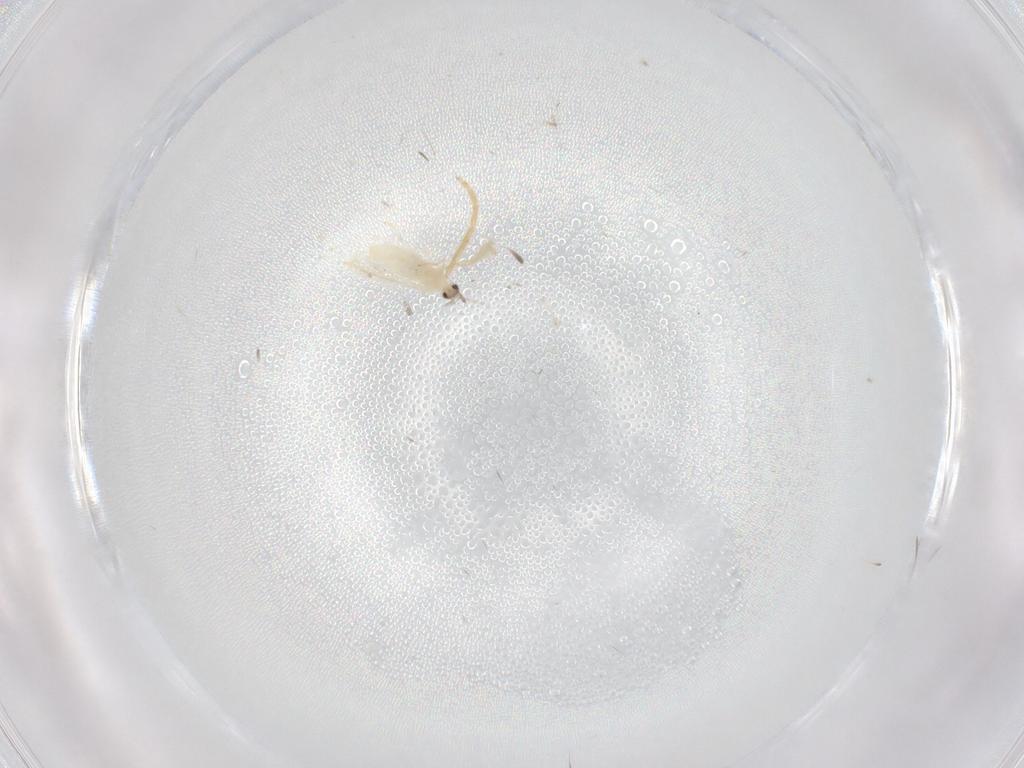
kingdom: Animalia
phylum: Arthropoda
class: Insecta
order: Diptera
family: Cecidomyiidae
